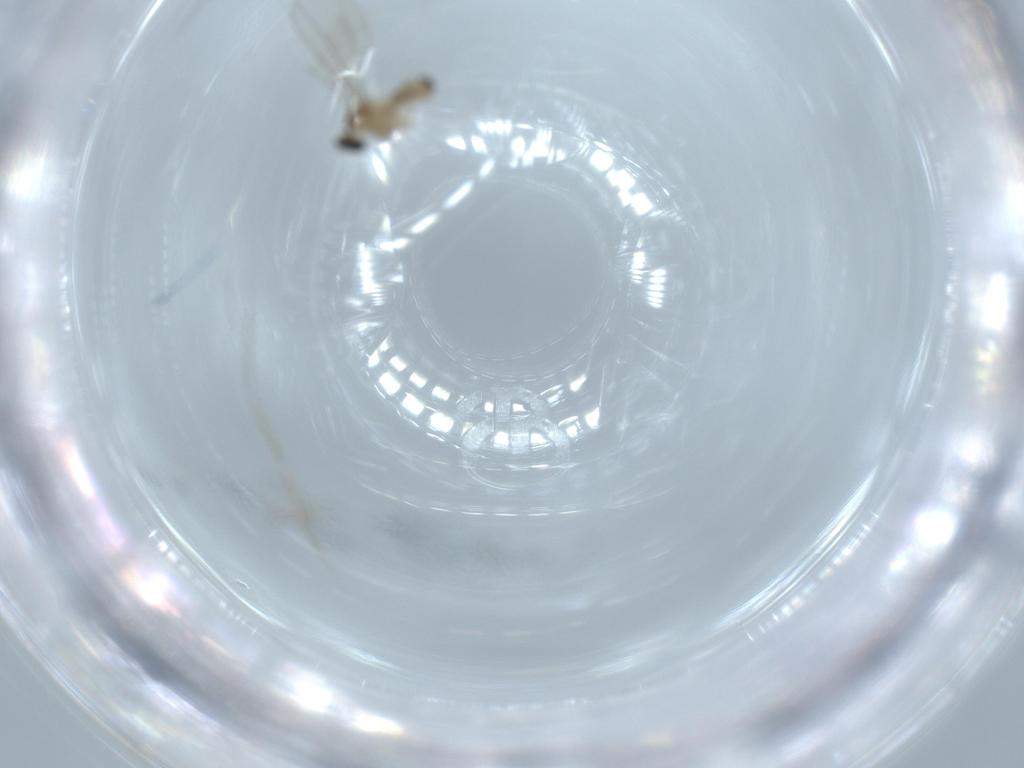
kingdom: Animalia
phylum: Arthropoda
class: Insecta
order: Diptera
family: Cecidomyiidae
